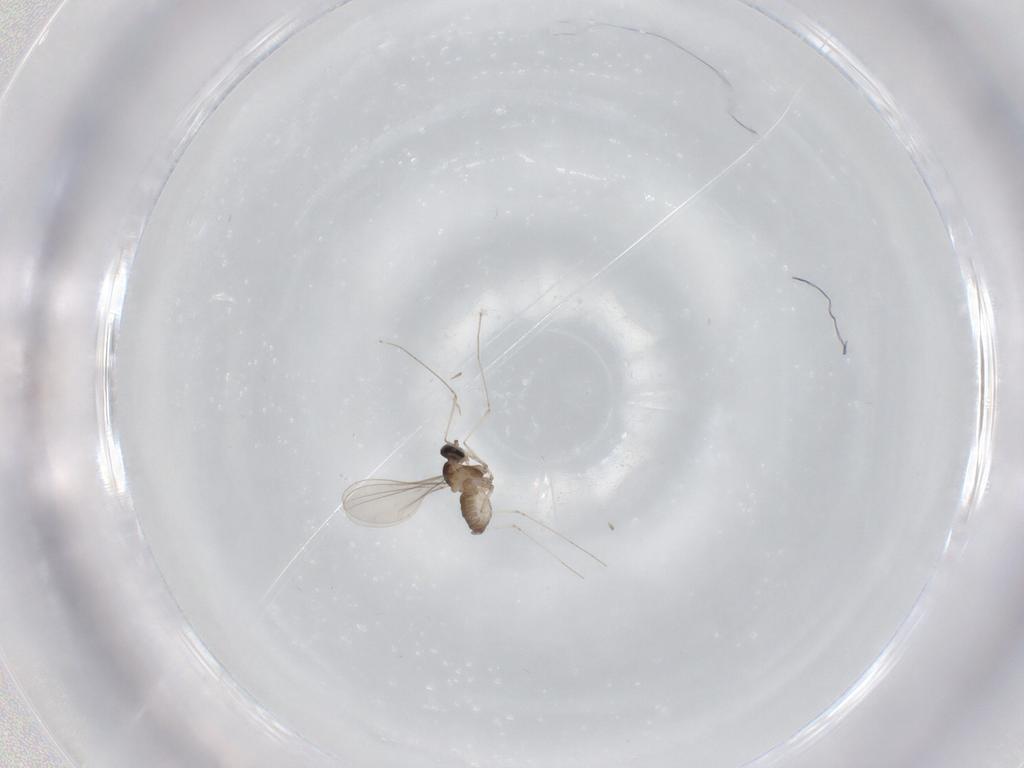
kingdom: Animalia
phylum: Arthropoda
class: Insecta
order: Diptera
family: Cecidomyiidae
